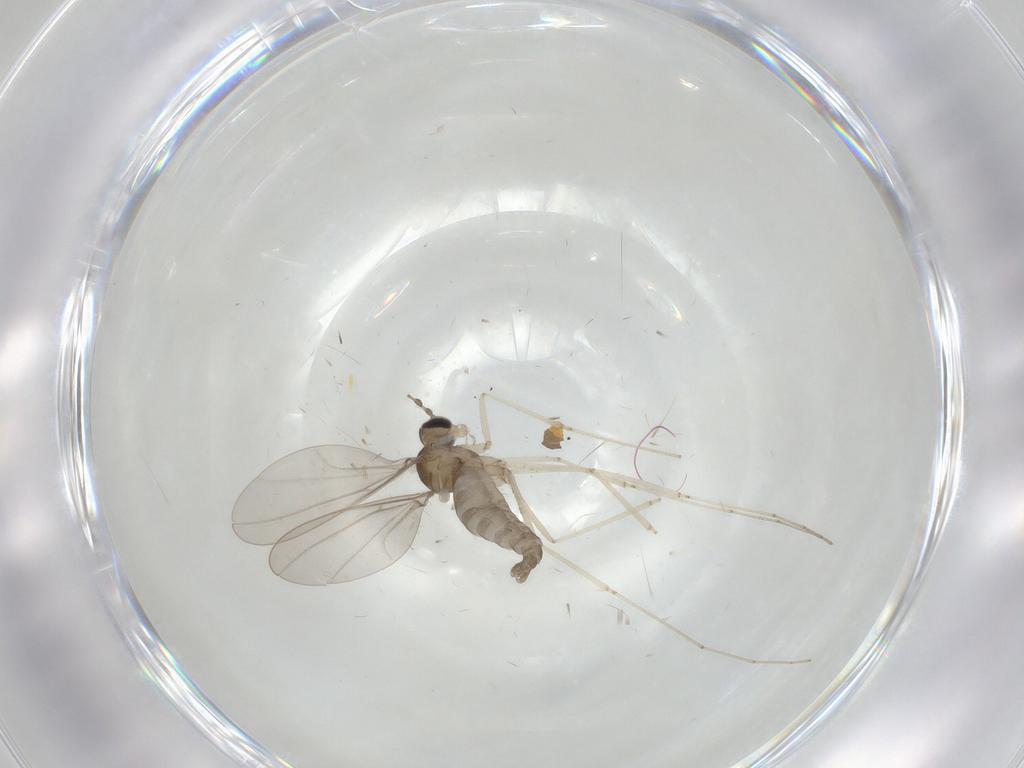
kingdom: Animalia
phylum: Arthropoda
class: Insecta
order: Diptera
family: Cecidomyiidae
